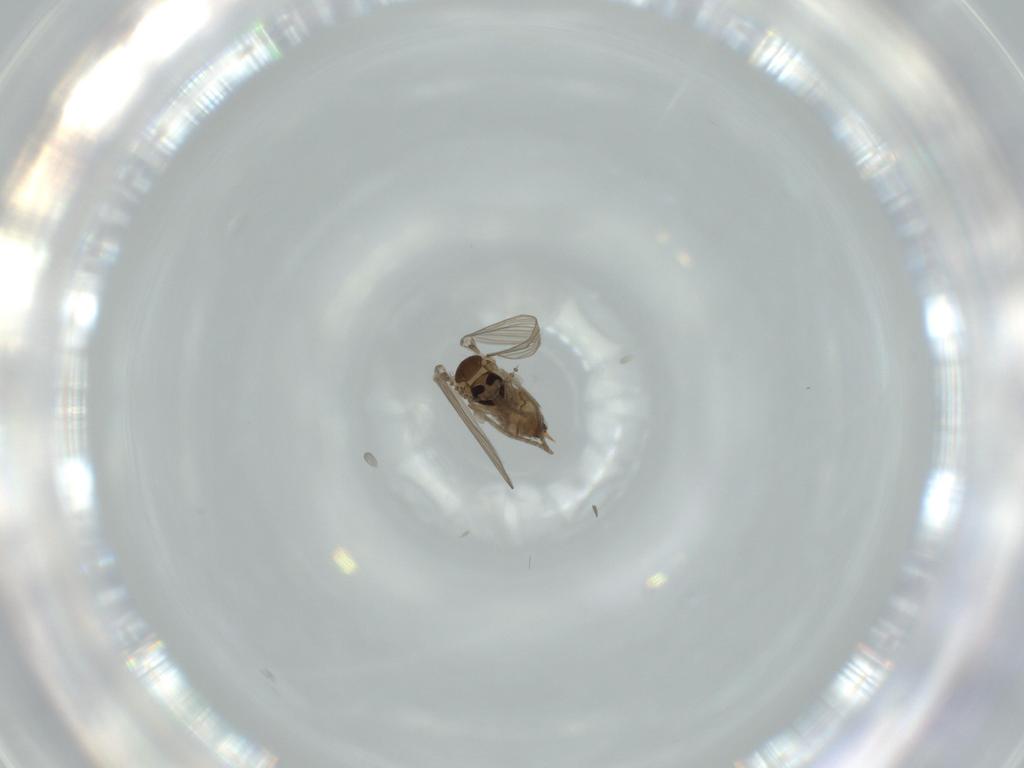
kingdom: Animalia
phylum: Arthropoda
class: Insecta
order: Diptera
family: Psychodidae
